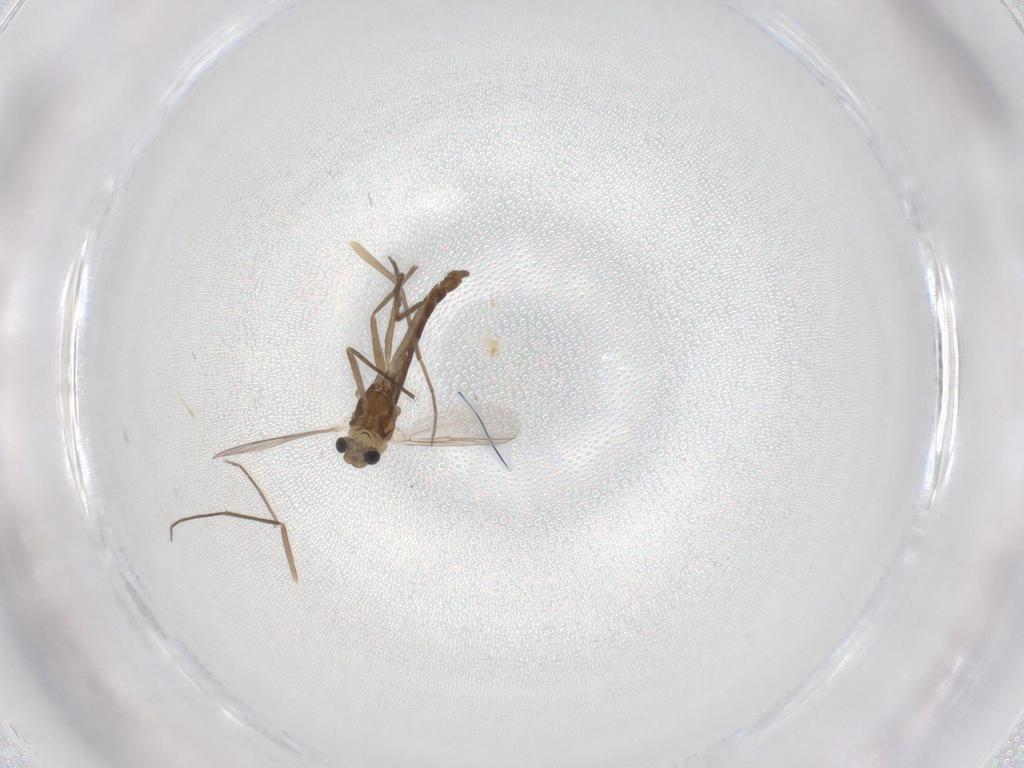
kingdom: Animalia
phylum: Arthropoda
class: Insecta
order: Diptera
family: Chironomidae
